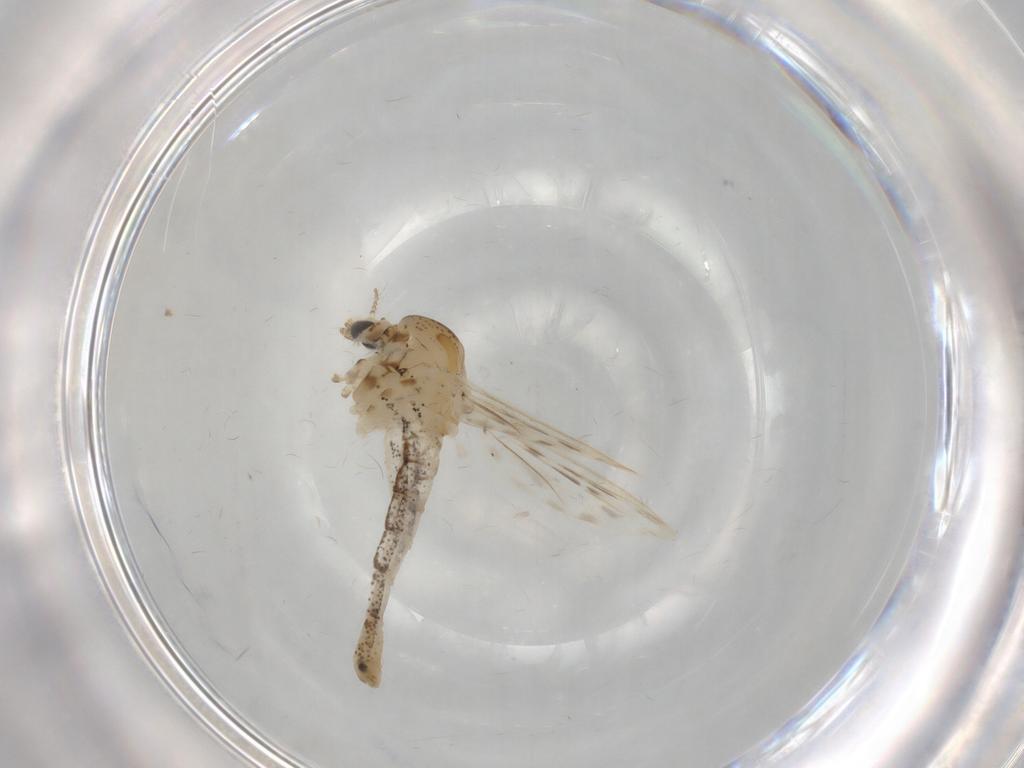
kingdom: Animalia
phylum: Arthropoda
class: Insecta
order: Diptera
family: Chaoboridae
